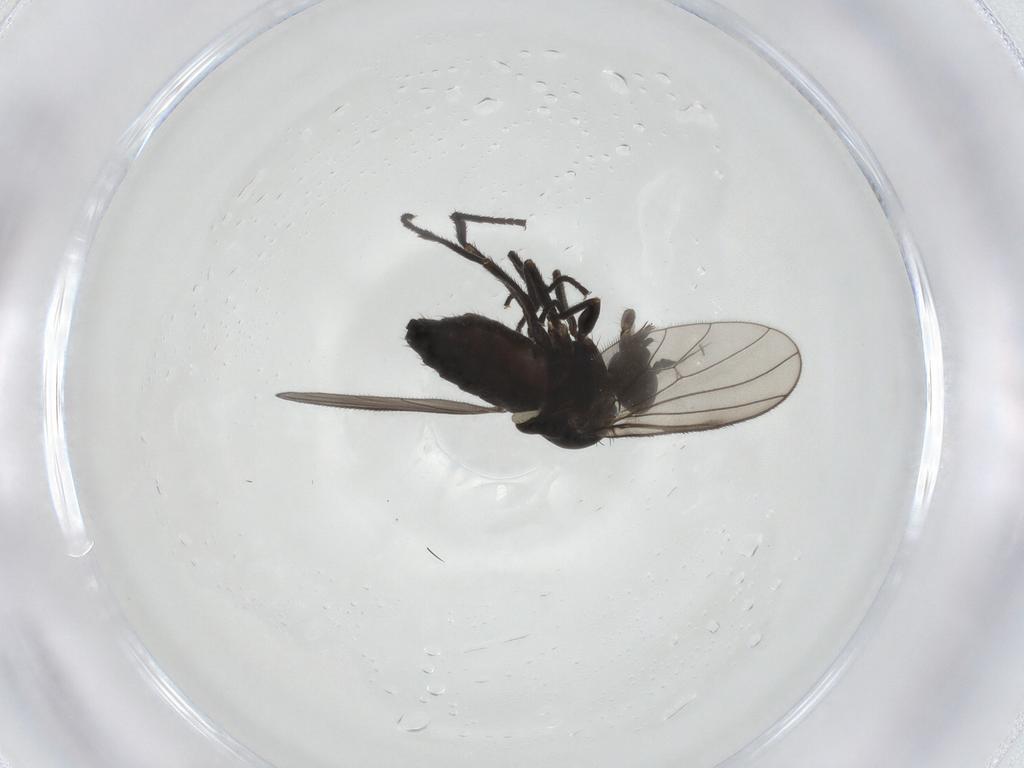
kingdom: Animalia
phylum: Arthropoda
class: Insecta
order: Diptera
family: Dolichopodidae
